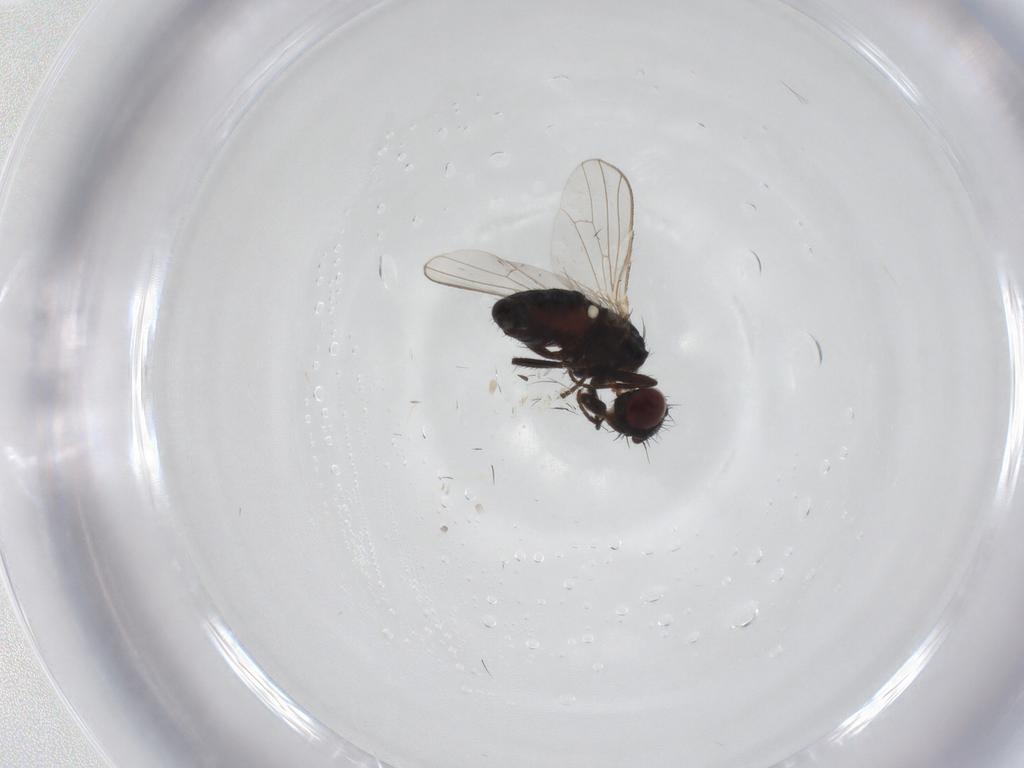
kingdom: Animalia
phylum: Arthropoda
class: Insecta
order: Diptera
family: Carnidae
